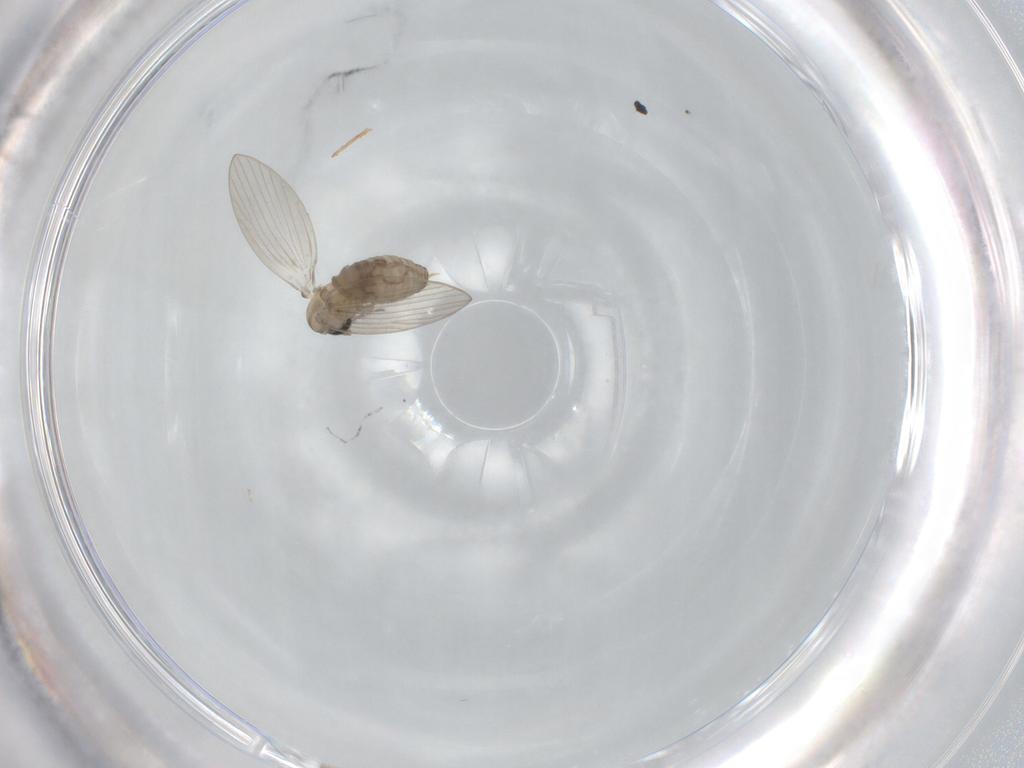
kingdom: Animalia
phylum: Arthropoda
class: Insecta
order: Diptera
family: Psychodidae
